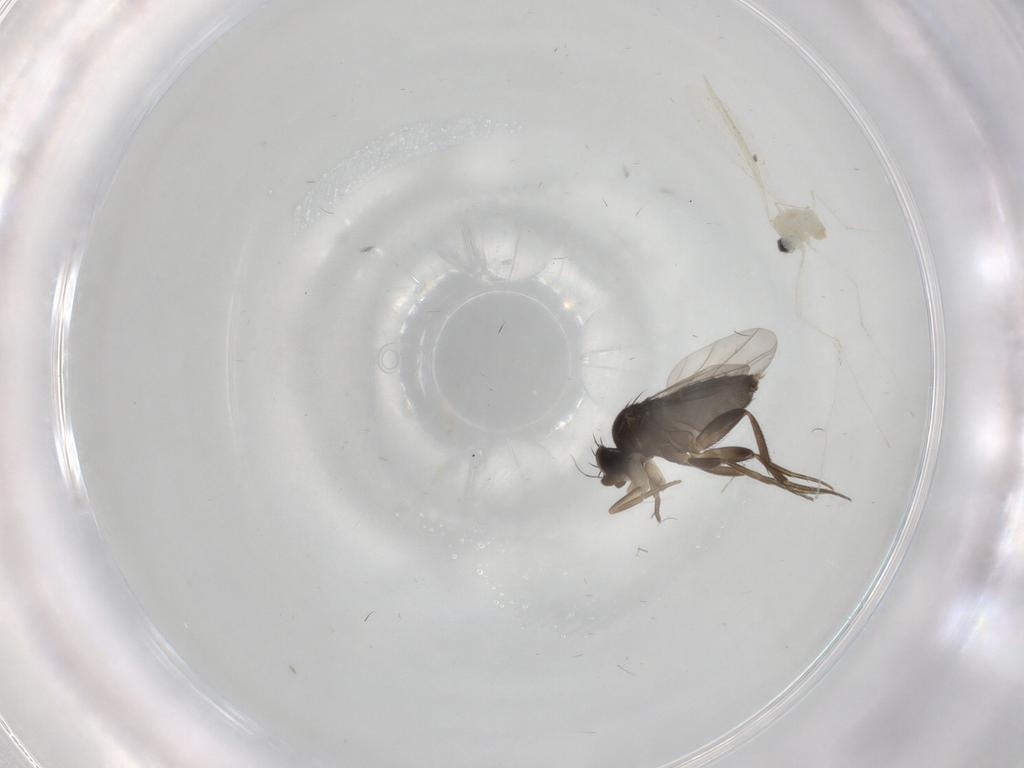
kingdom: Animalia
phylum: Arthropoda
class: Insecta
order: Diptera
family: Phoridae
